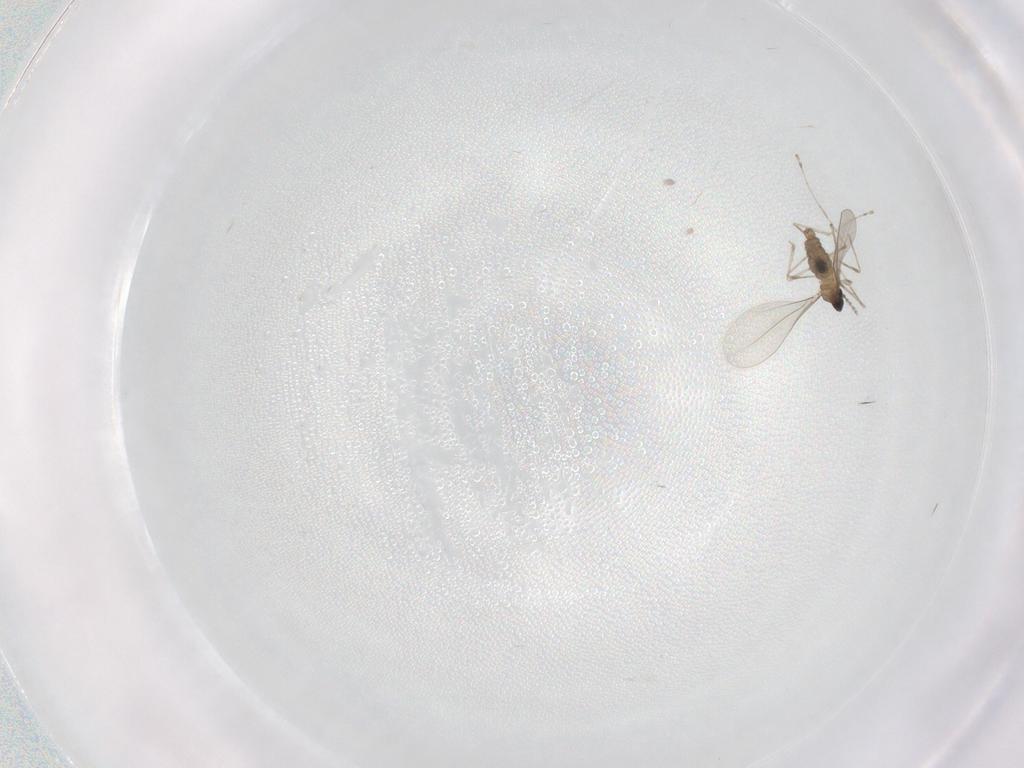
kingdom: Animalia
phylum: Arthropoda
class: Insecta
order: Diptera
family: Cecidomyiidae
